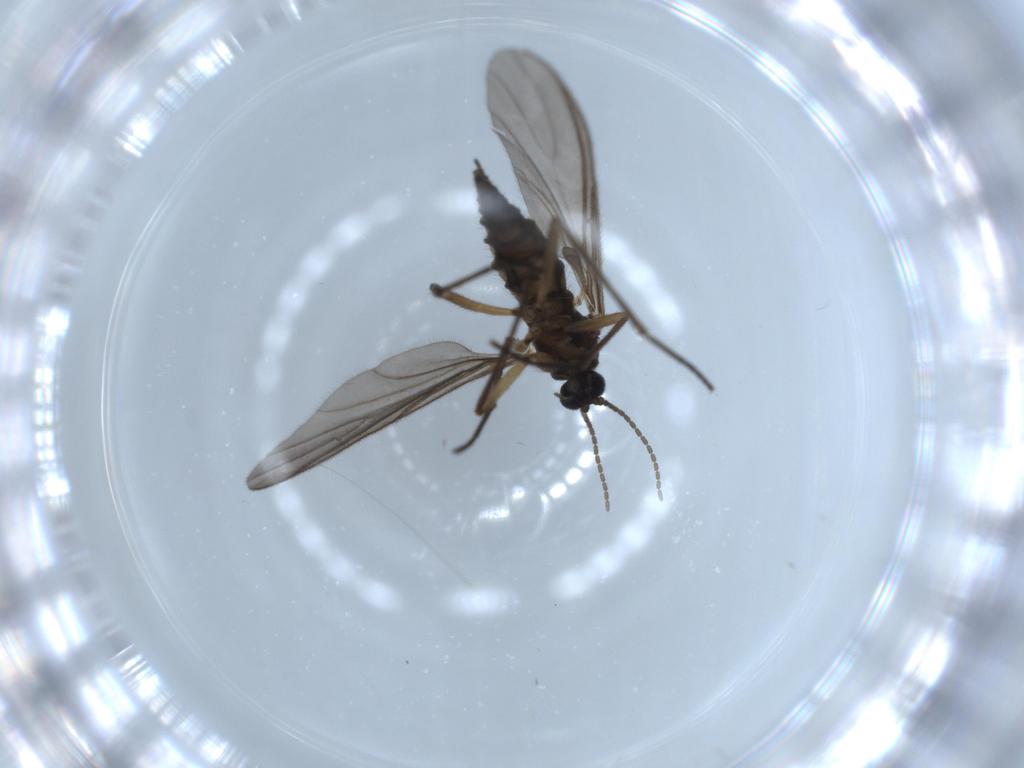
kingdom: Animalia
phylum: Arthropoda
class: Insecta
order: Diptera
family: Sciaridae
